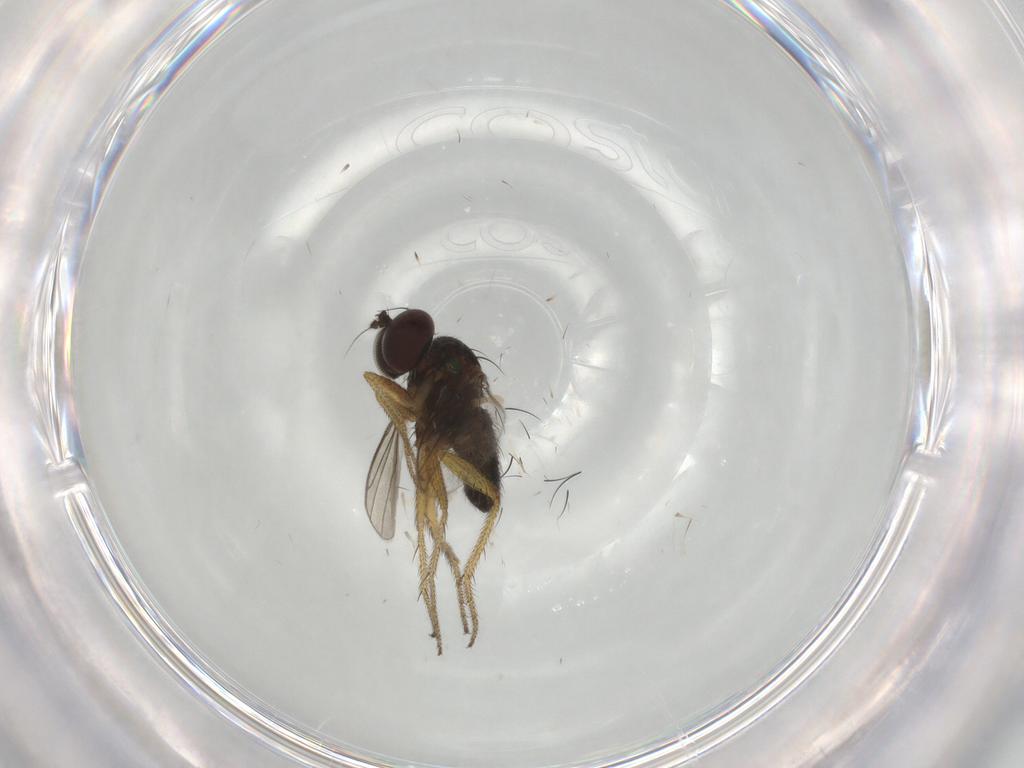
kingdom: Animalia
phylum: Arthropoda
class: Insecta
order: Diptera
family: Dolichopodidae
